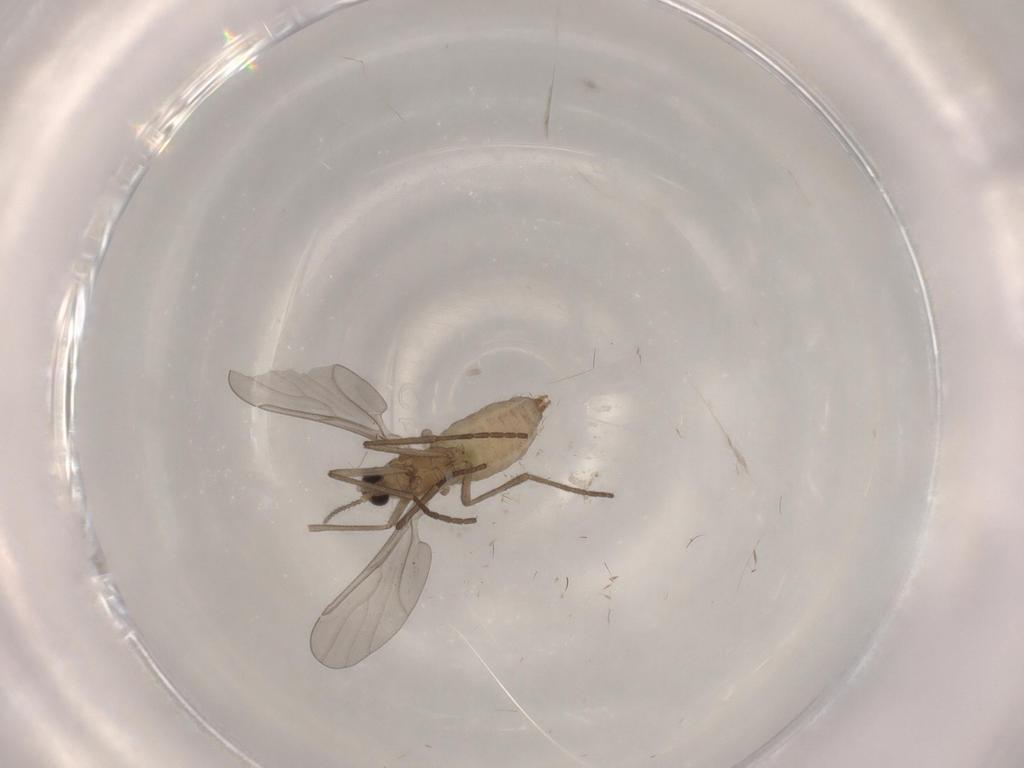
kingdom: Animalia
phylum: Arthropoda
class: Insecta
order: Diptera
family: Cecidomyiidae
